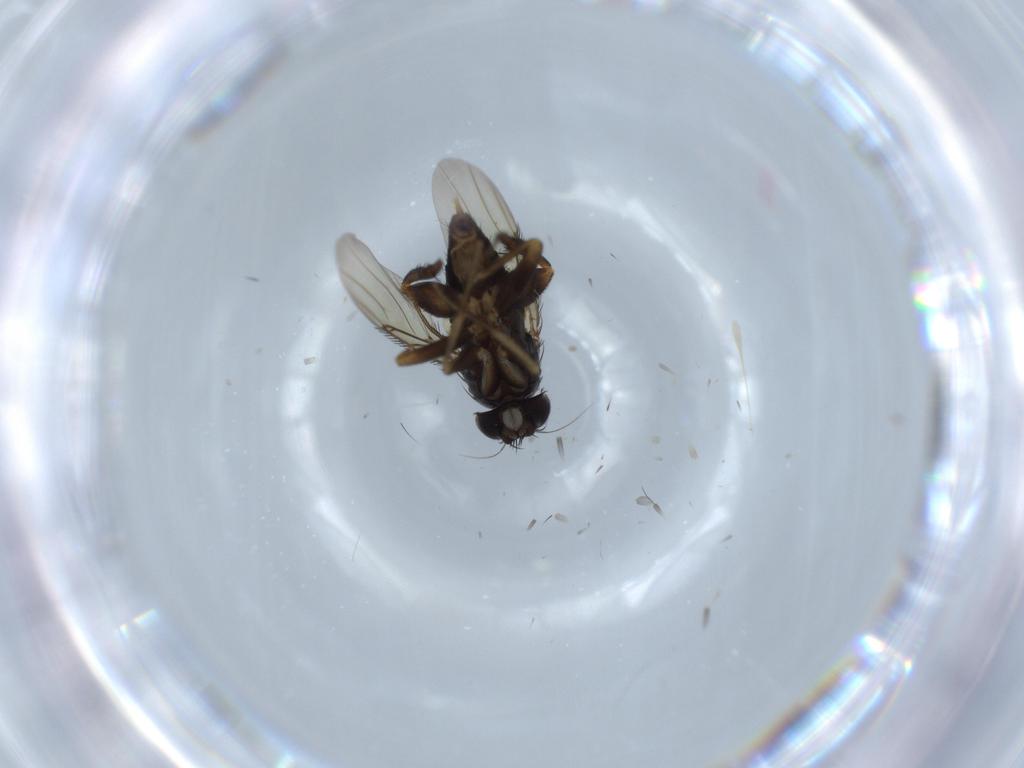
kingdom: Animalia
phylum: Arthropoda
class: Insecta
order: Diptera
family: Phoridae
